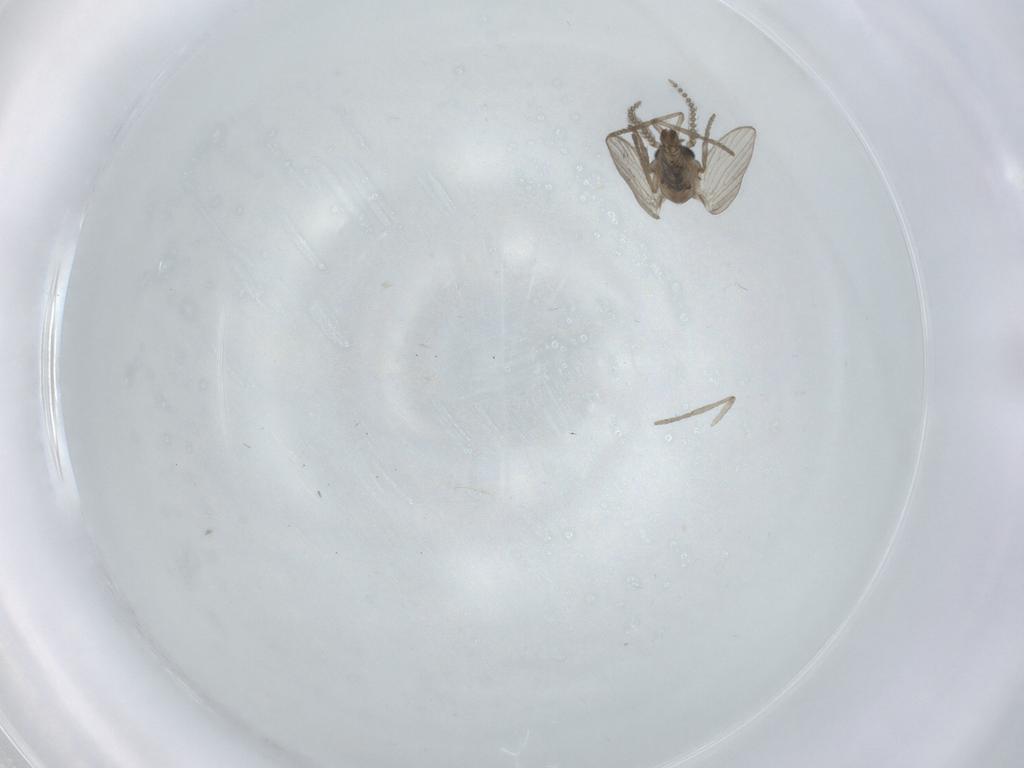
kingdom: Animalia
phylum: Arthropoda
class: Insecta
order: Diptera
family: Psychodidae
